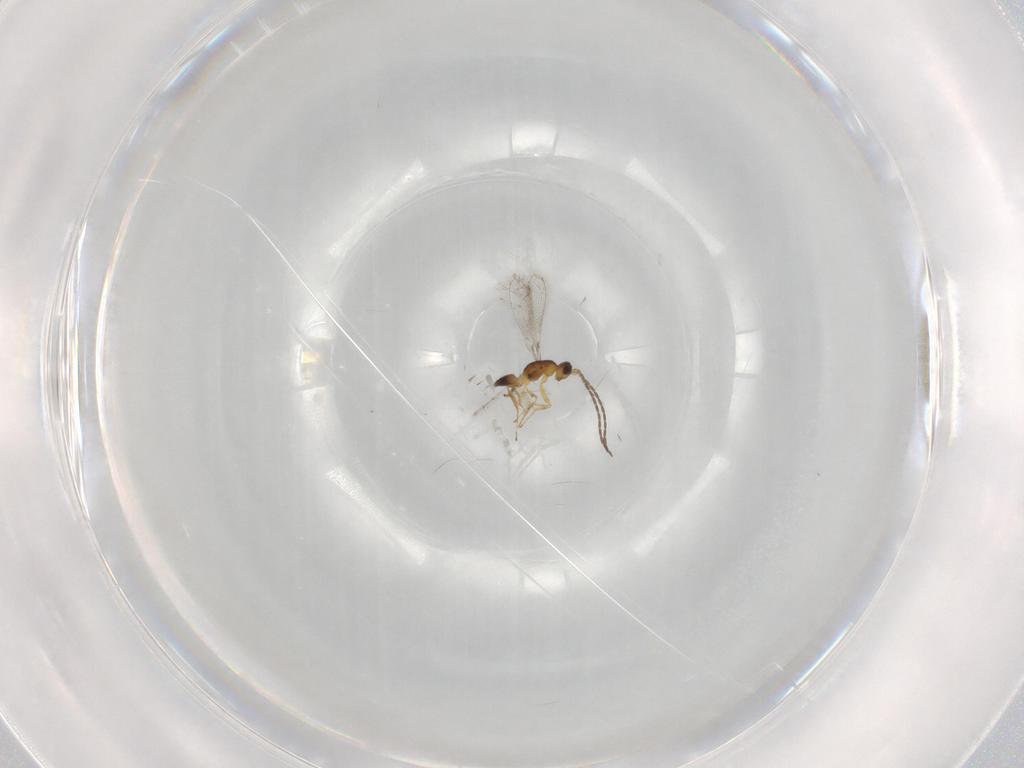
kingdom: Animalia
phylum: Arthropoda
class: Insecta
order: Hymenoptera
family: Mymaridae
